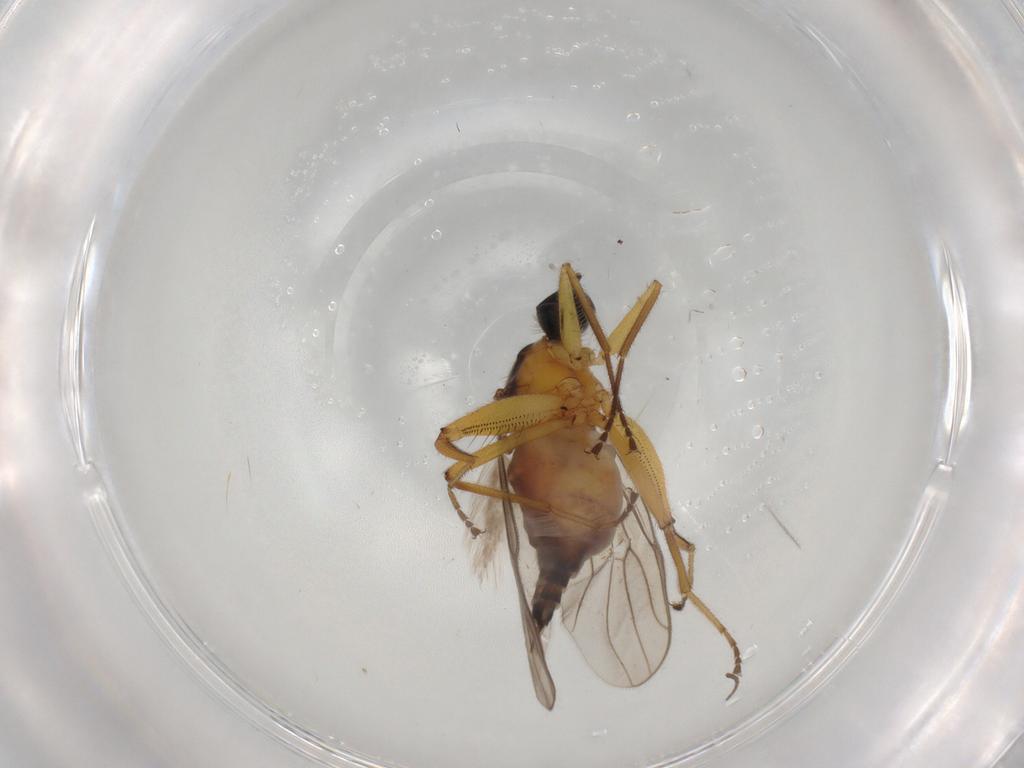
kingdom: Animalia
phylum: Arthropoda
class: Insecta
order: Diptera
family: Hybotidae
